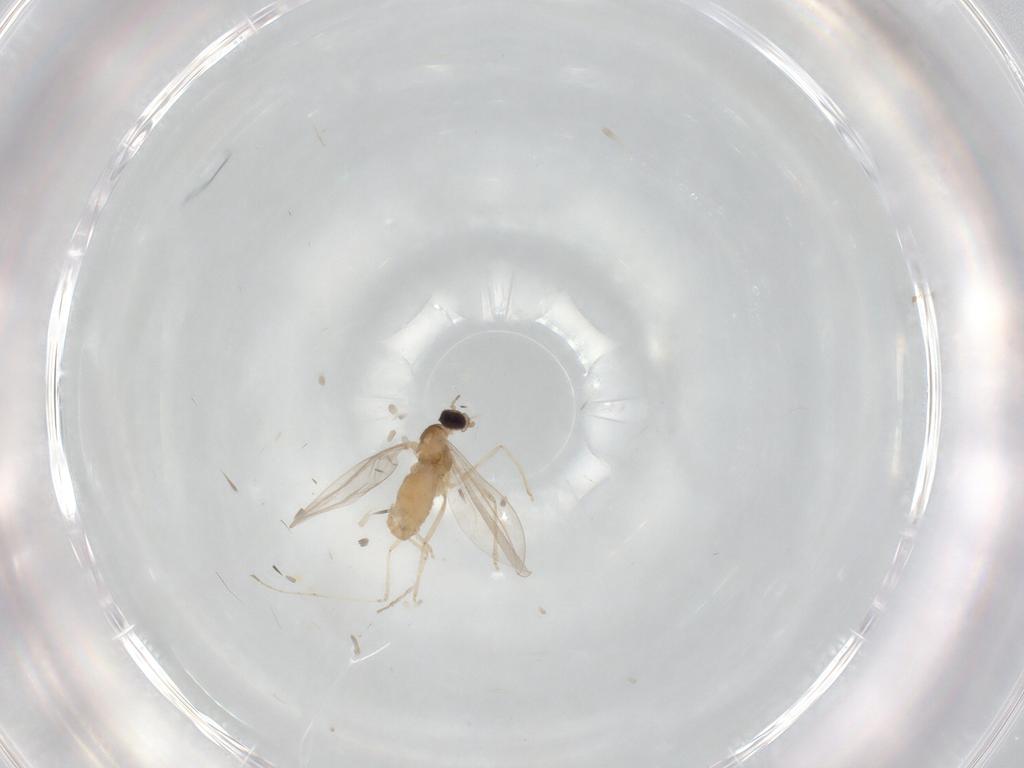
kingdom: Animalia
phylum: Arthropoda
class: Insecta
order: Diptera
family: Cecidomyiidae
